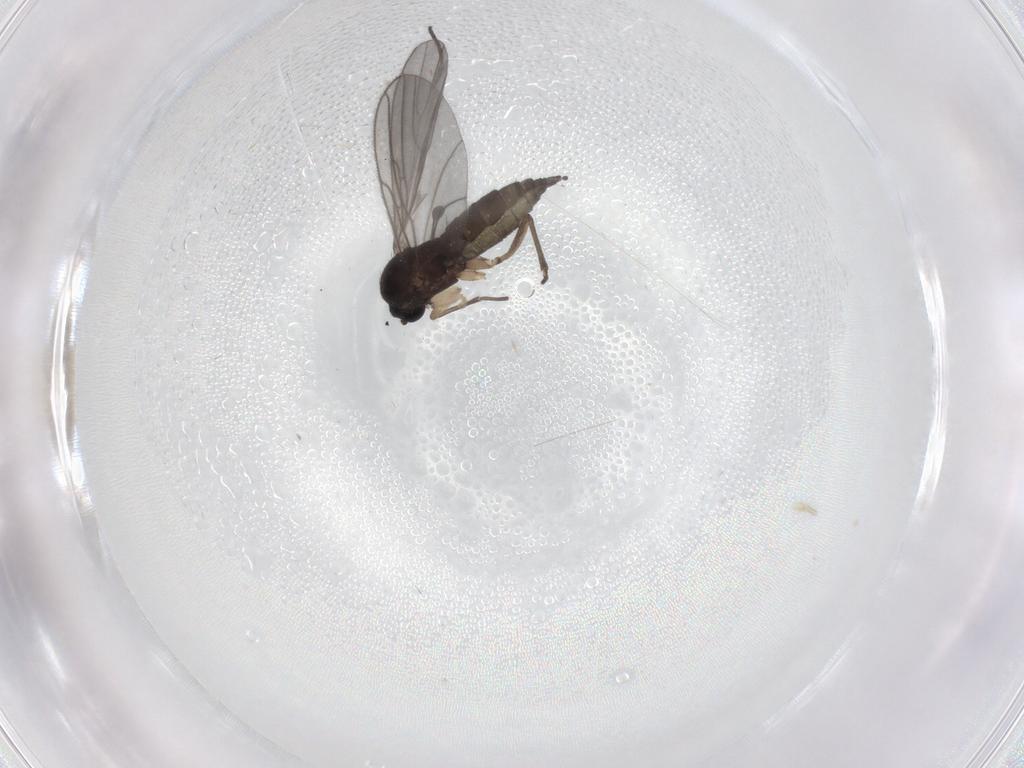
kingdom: Animalia
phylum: Arthropoda
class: Insecta
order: Diptera
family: Sciaridae
